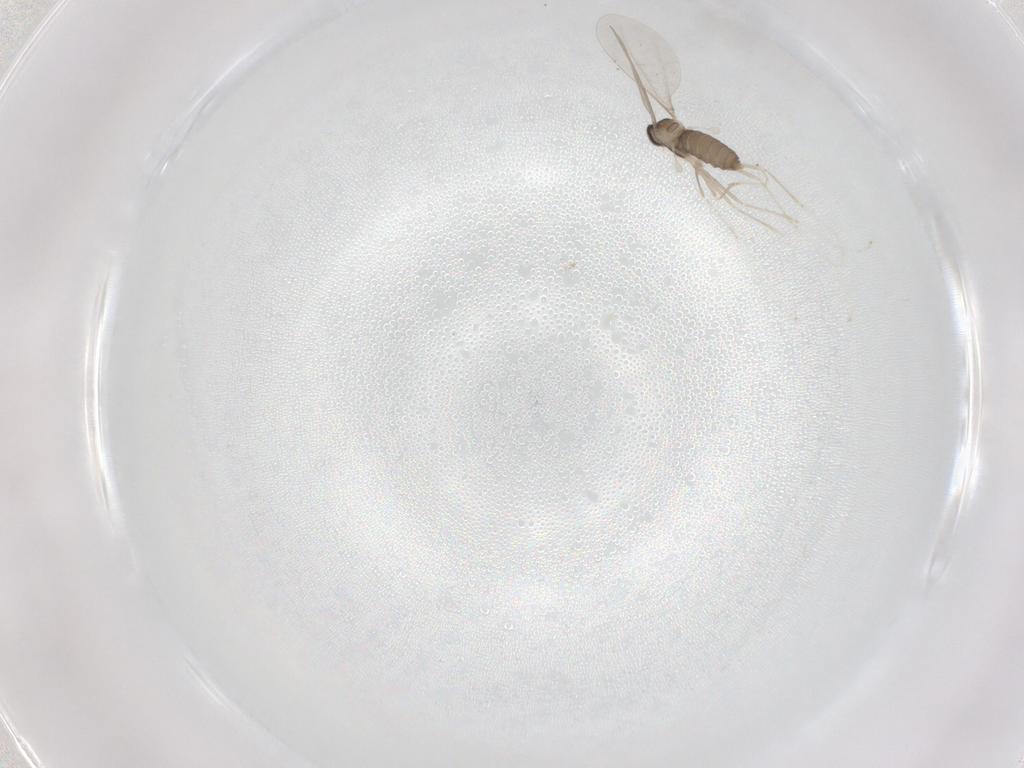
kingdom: Animalia
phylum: Arthropoda
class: Insecta
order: Diptera
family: Cecidomyiidae
